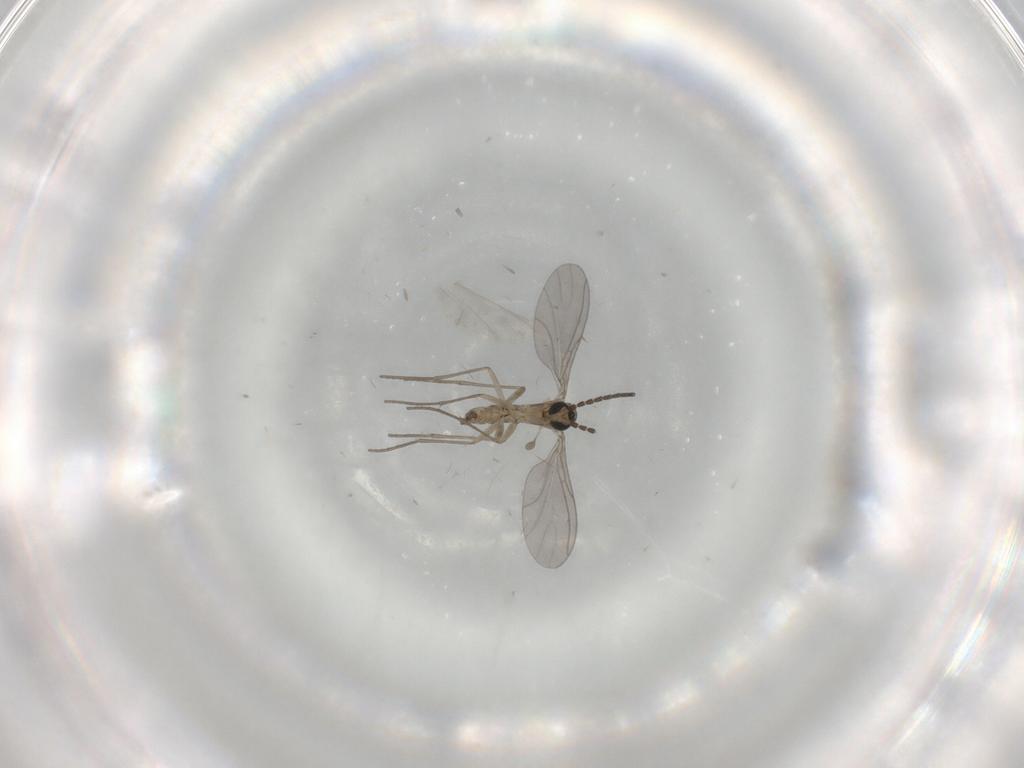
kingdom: Animalia
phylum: Arthropoda
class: Insecta
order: Diptera
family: Sciaridae
